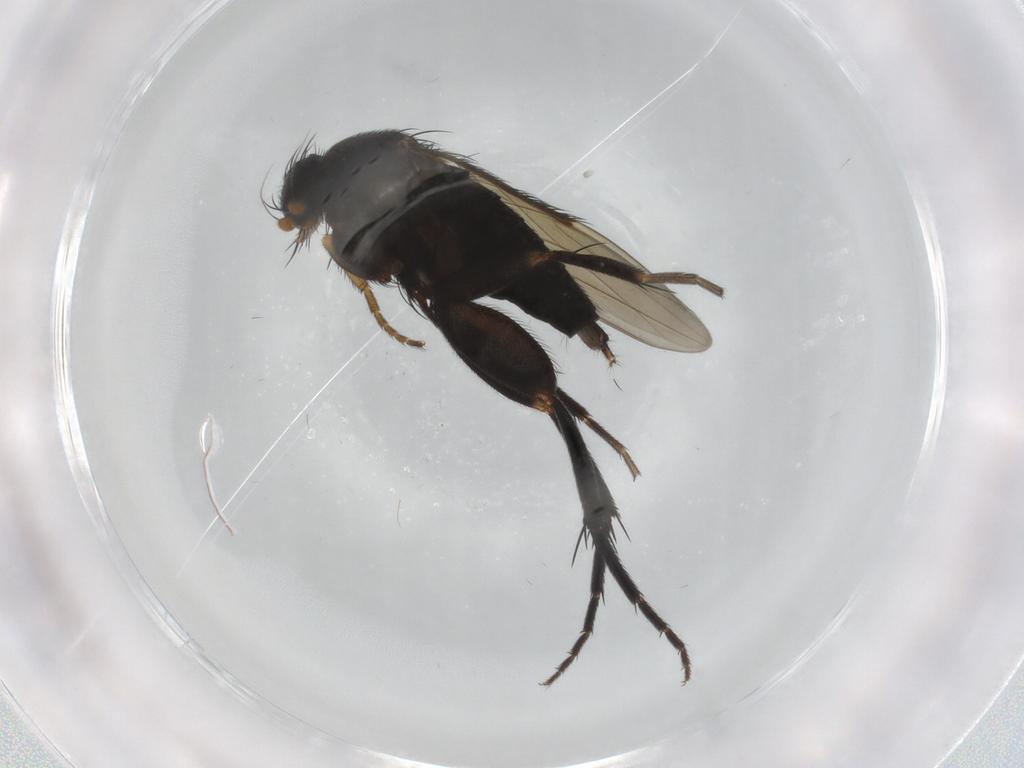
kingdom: Animalia
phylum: Arthropoda
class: Insecta
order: Diptera
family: Phoridae
